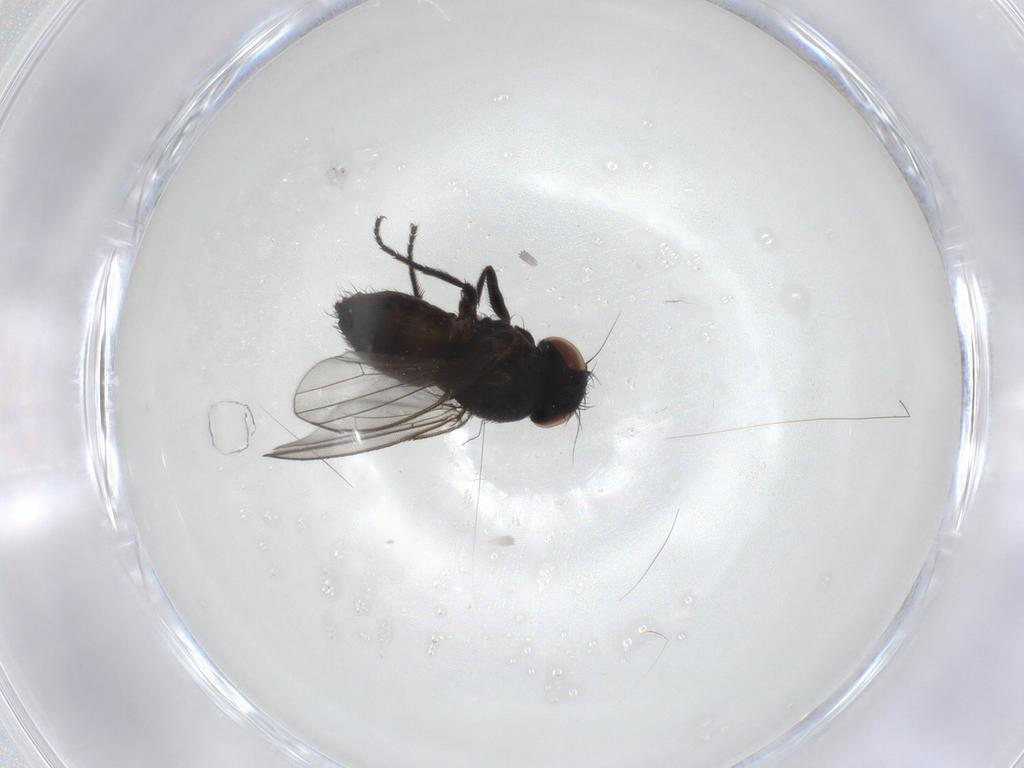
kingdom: Animalia
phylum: Arthropoda
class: Insecta
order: Diptera
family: Milichiidae
